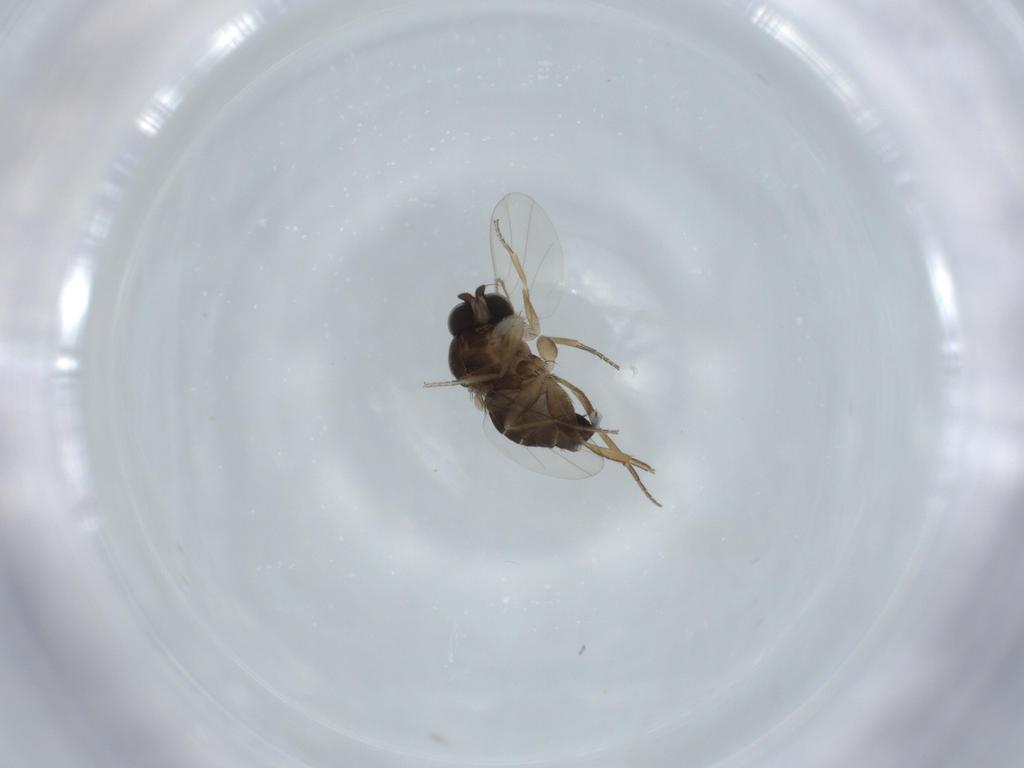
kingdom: Animalia
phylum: Arthropoda
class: Insecta
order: Diptera
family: Phoridae
